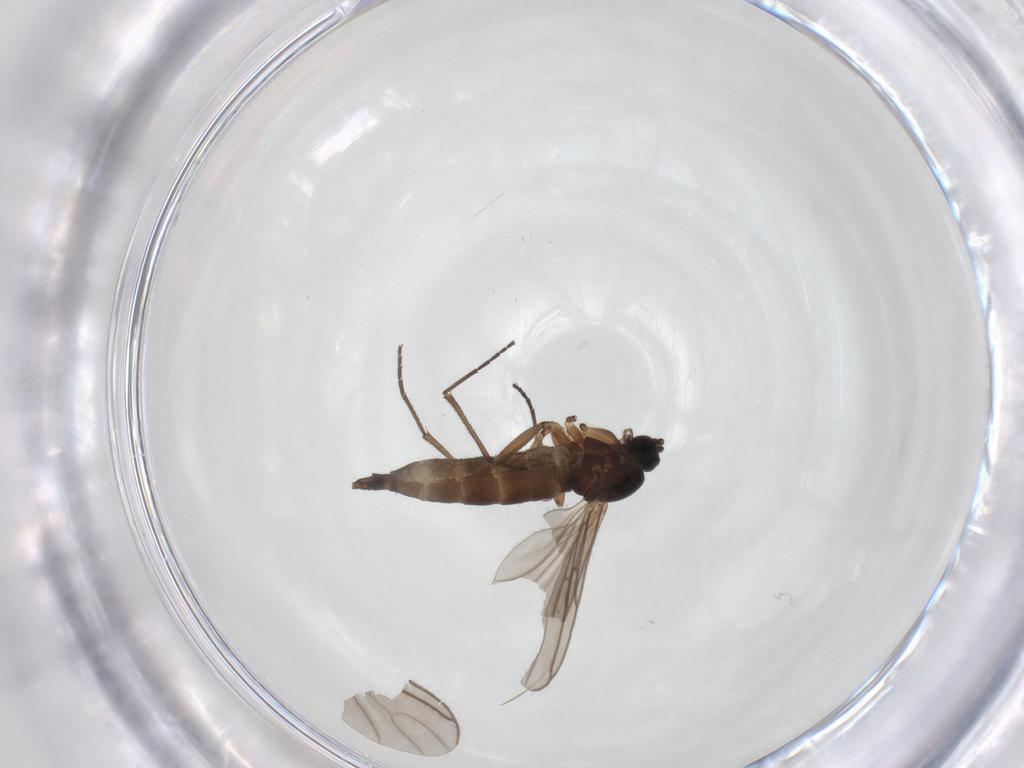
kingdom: Animalia
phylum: Arthropoda
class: Insecta
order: Diptera
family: Sciaridae
